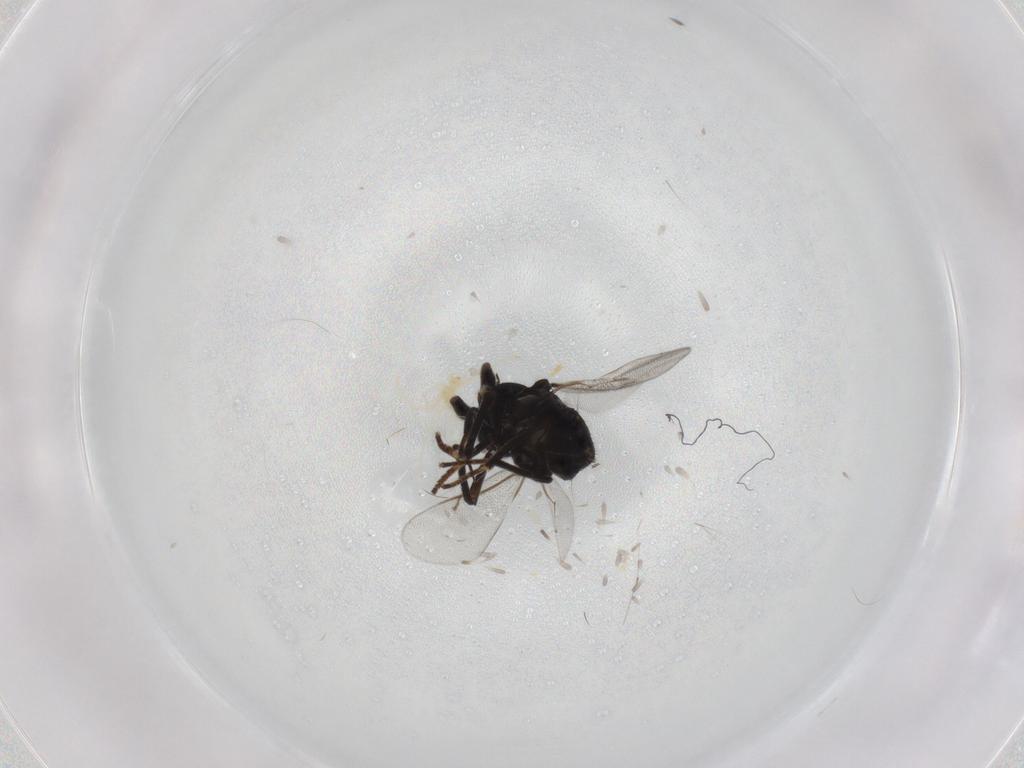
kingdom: Animalia
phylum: Arthropoda
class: Insecta
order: Hymenoptera
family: Encyrtidae
